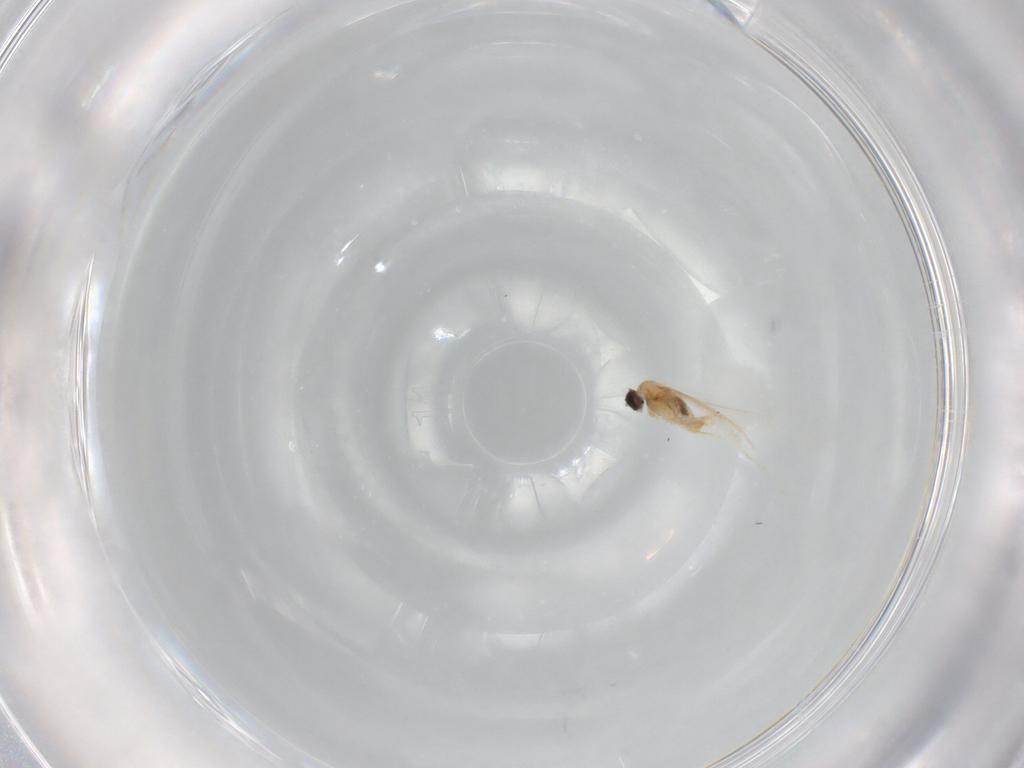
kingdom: Animalia
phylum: Arthropoda
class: Insecta
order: Diptera
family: Cecidomyiidae
